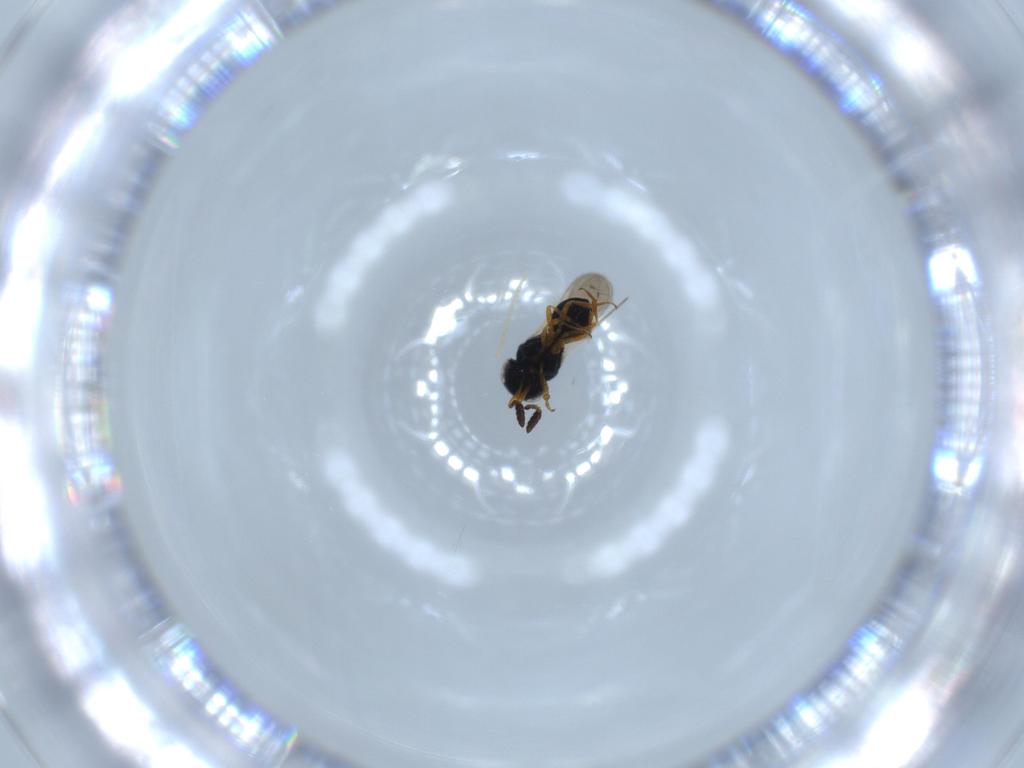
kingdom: Animalia
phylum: Arthropoda
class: Insecta
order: Hymenoptera
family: Scelionidae
